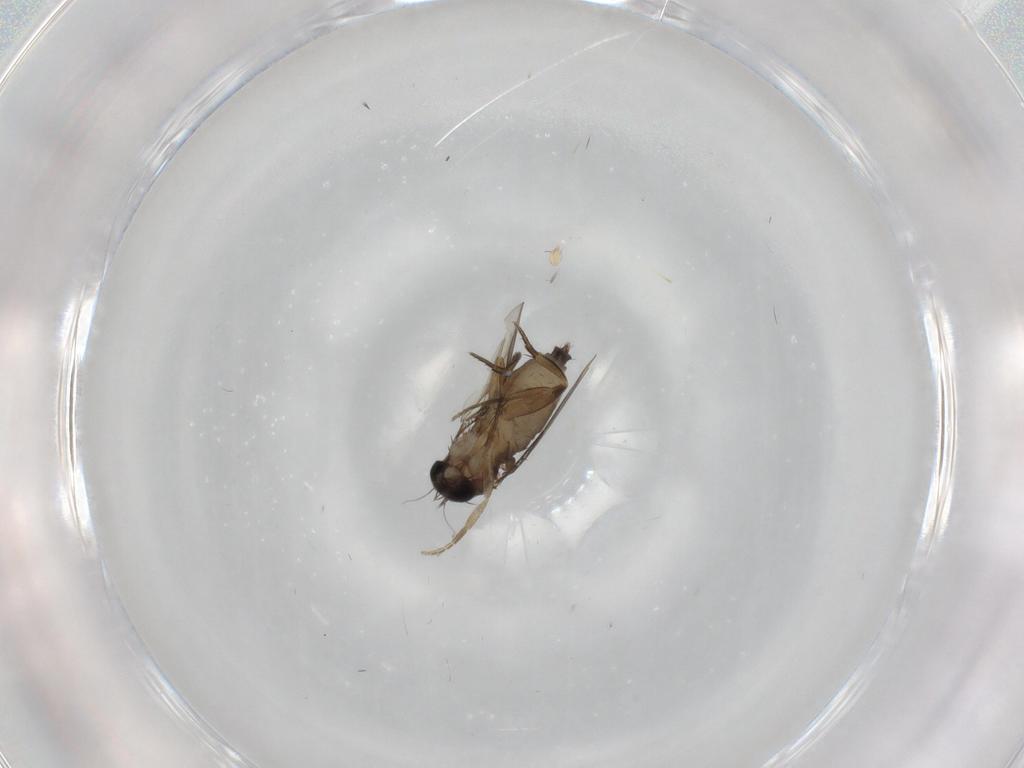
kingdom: Animalia
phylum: Arthropoda
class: Insecta
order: Diptera
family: Phoridae
